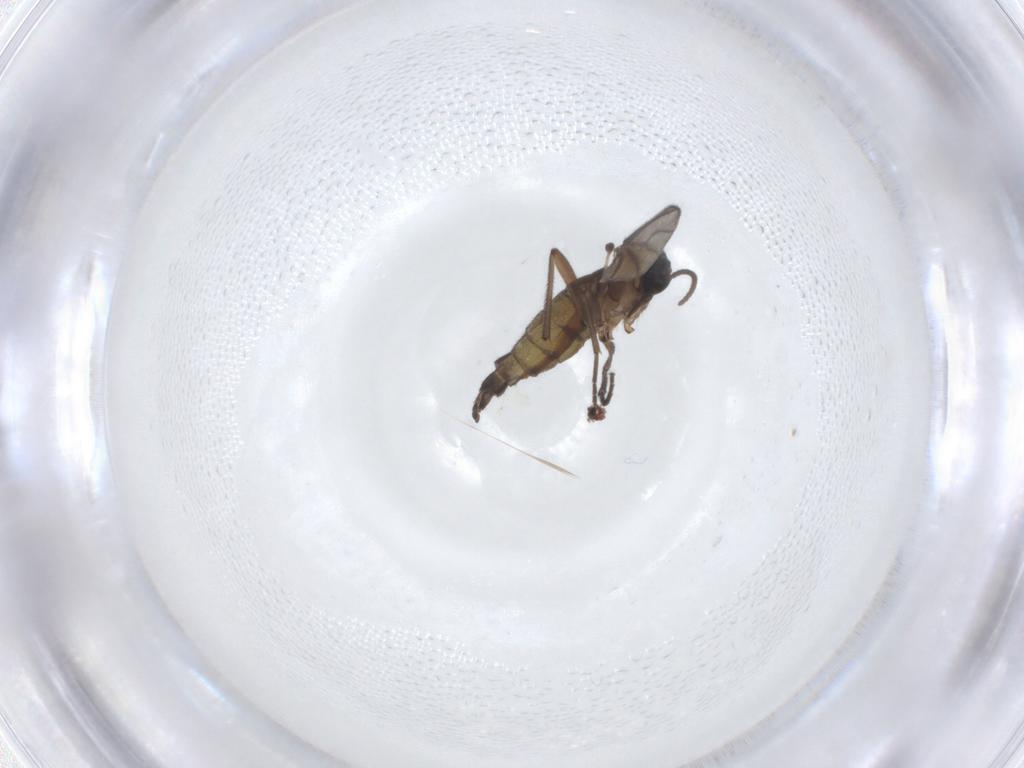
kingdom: Animalia
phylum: Arthropoda
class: Insecta
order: Diptera
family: Sciaridae
